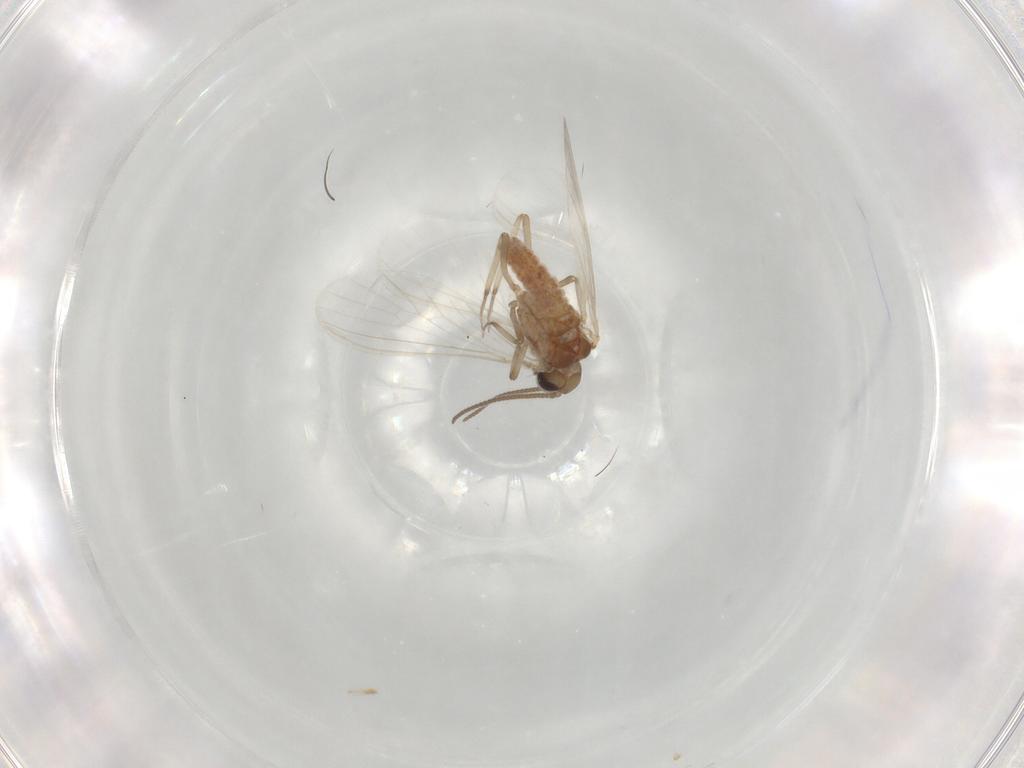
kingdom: Animalia
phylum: Arthropoda
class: Insecta
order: Neuroptera
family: Coniopterygidae
